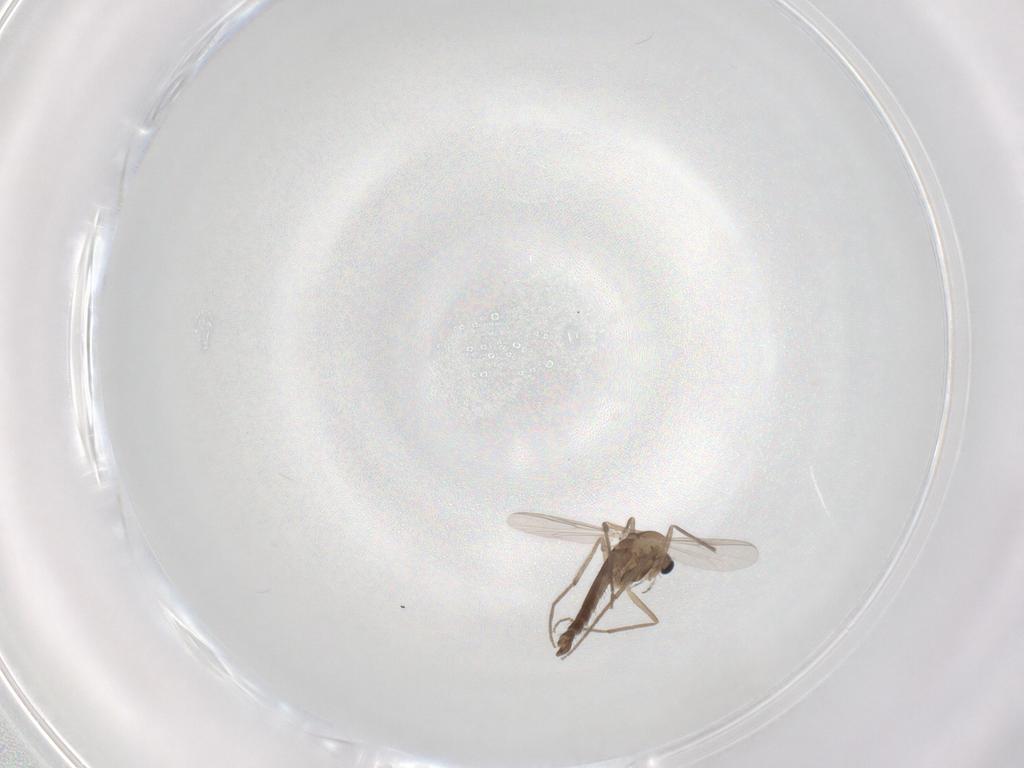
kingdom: Animalia
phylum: Arthropoda
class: Insecta
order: Diptera
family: Chironomidae
